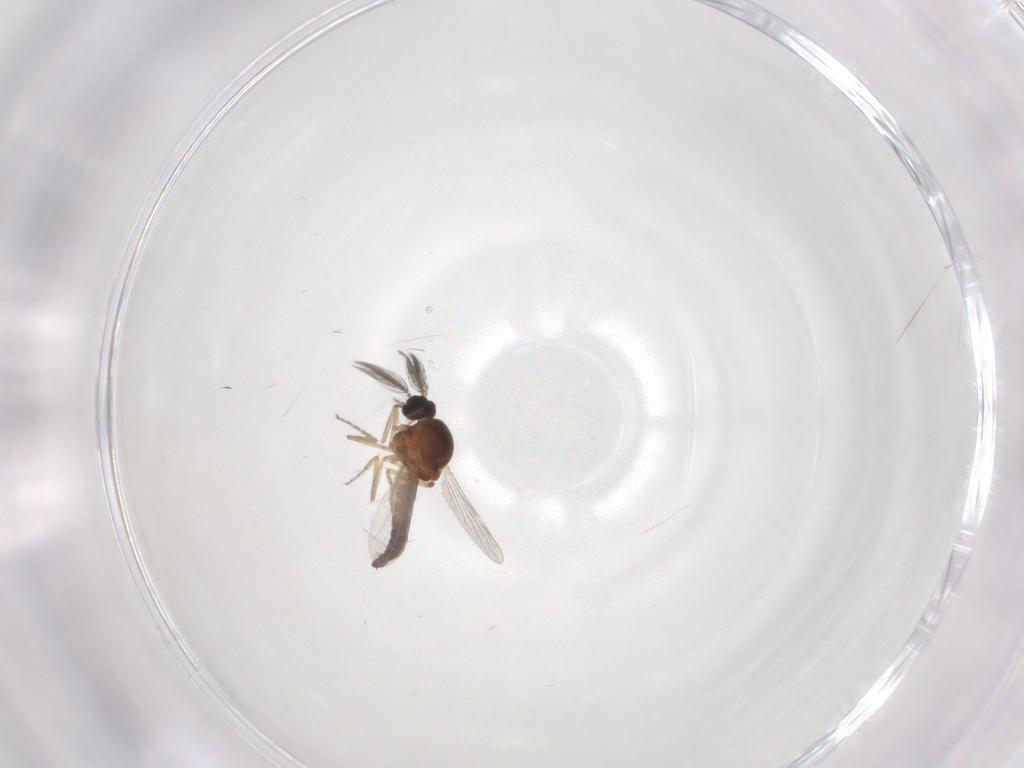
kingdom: Animalia
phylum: Arthropoda
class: Insecta
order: Diptera
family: Ceratopogonidae
